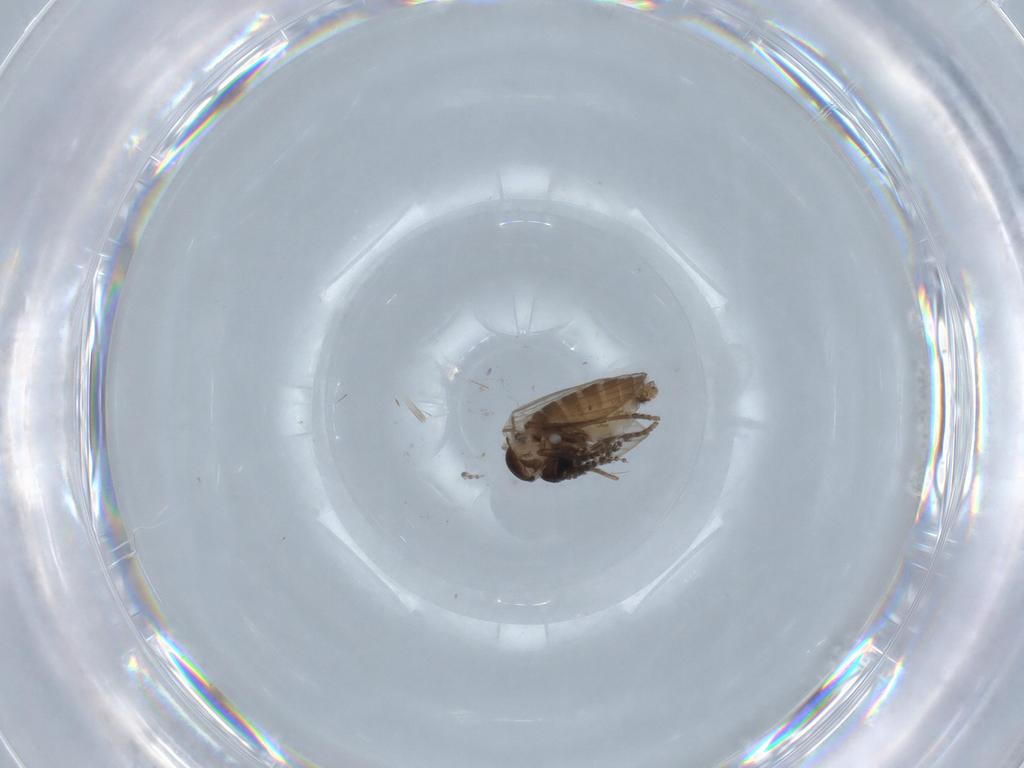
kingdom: Animalia
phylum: Arthropoda
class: Insecta
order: Diptera
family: Psychodidae
